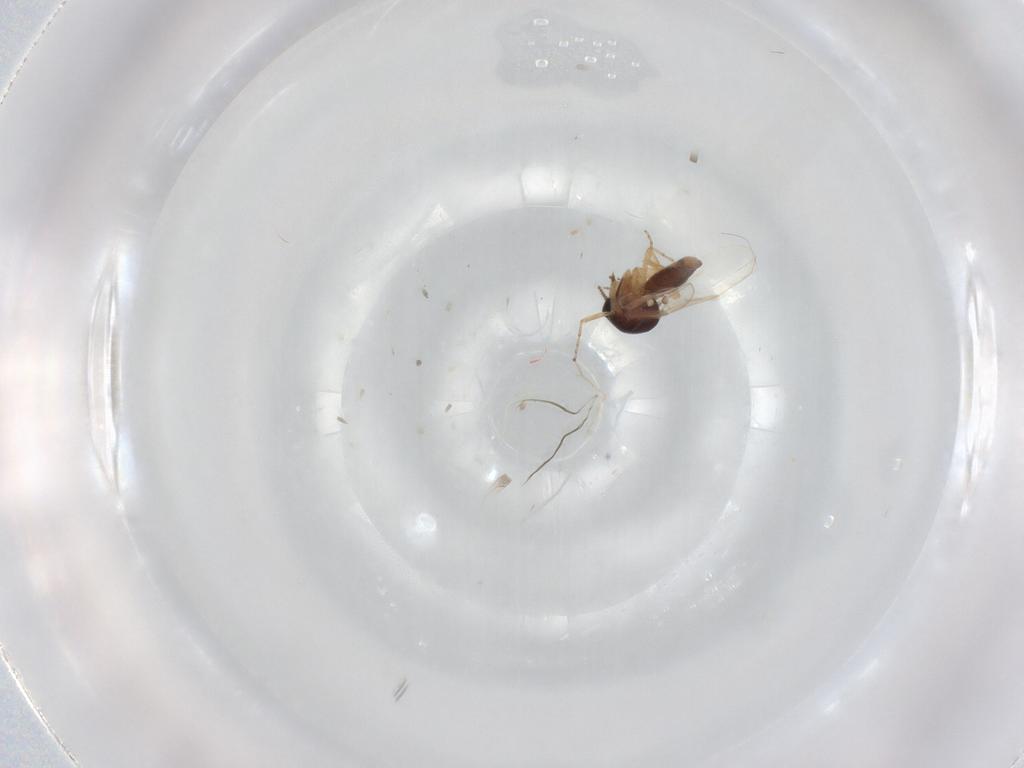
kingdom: Animalia
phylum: Arthropoda
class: Insecta
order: Diptera
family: Ceratopogonidae
